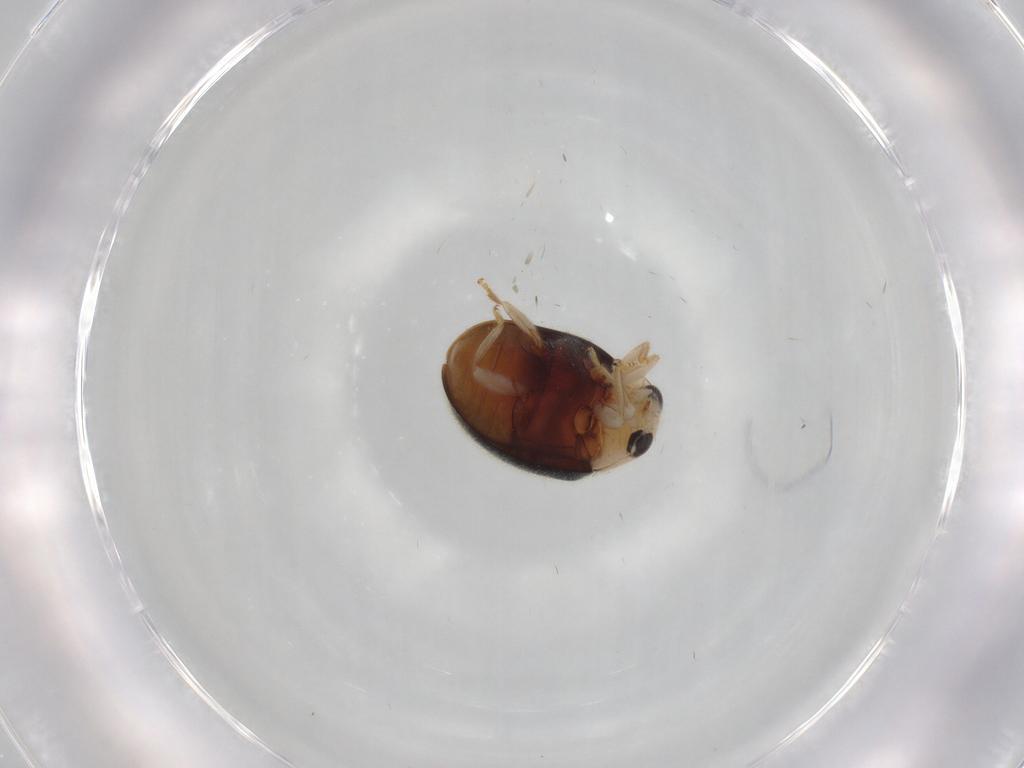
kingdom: Animalia
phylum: Arthropoda
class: Insecta
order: Coleoptera
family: Coccinellidae
